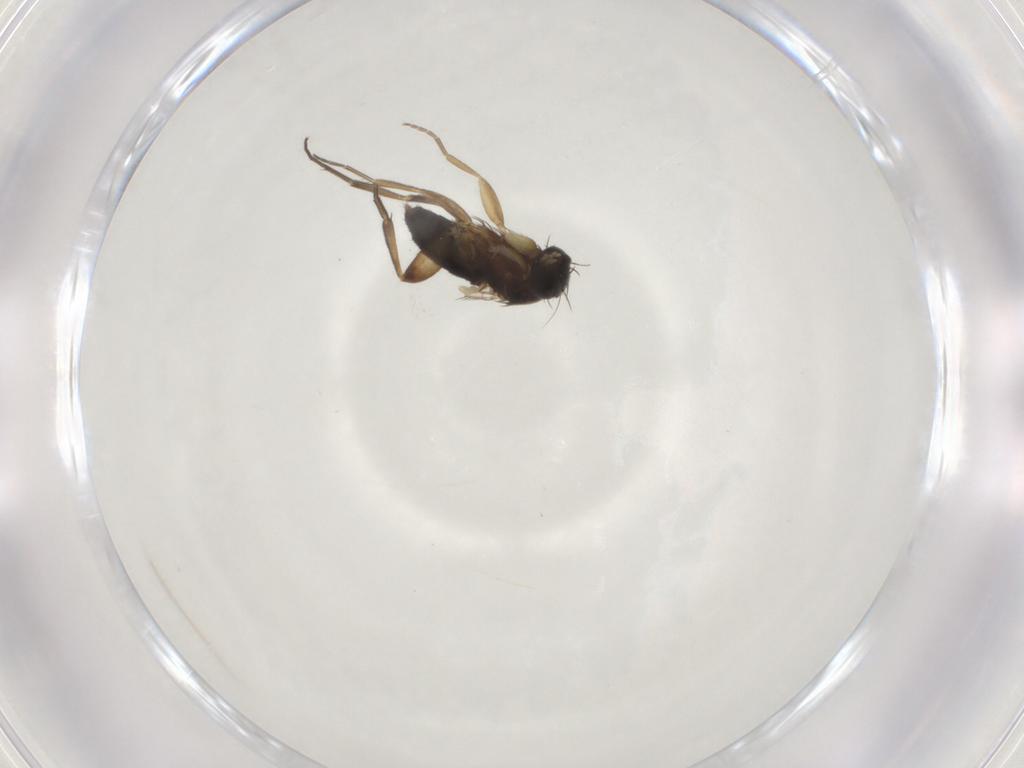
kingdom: Animalia
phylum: Arthropoda
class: Insecta
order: Diptera
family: Phoridae
